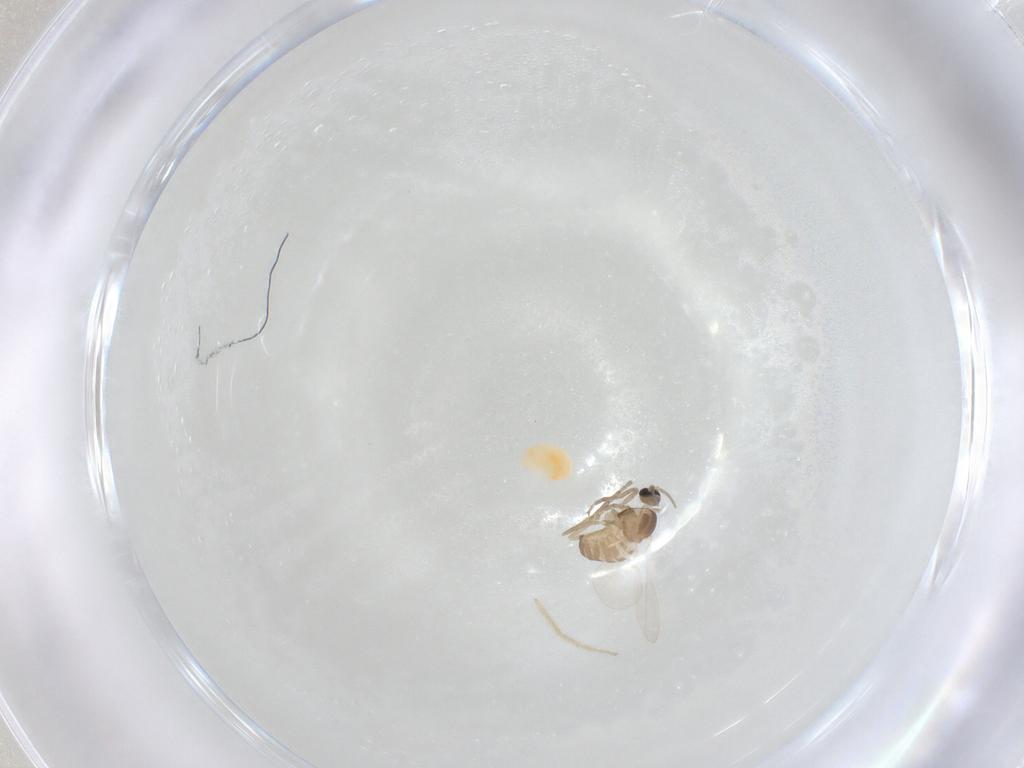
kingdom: Animalia
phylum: Arthropoda
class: Insecta
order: Diptera
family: Cecidomyiidae
